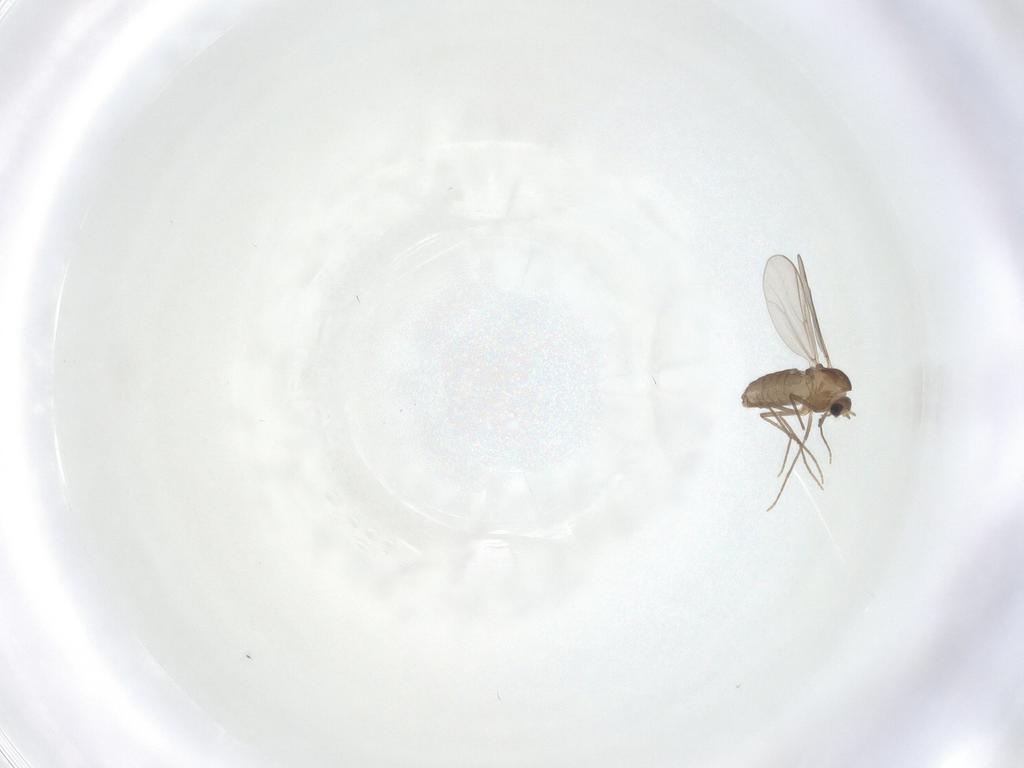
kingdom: Animalia
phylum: Arthropoda
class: Insecta
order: Diptera
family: Chironomidae
